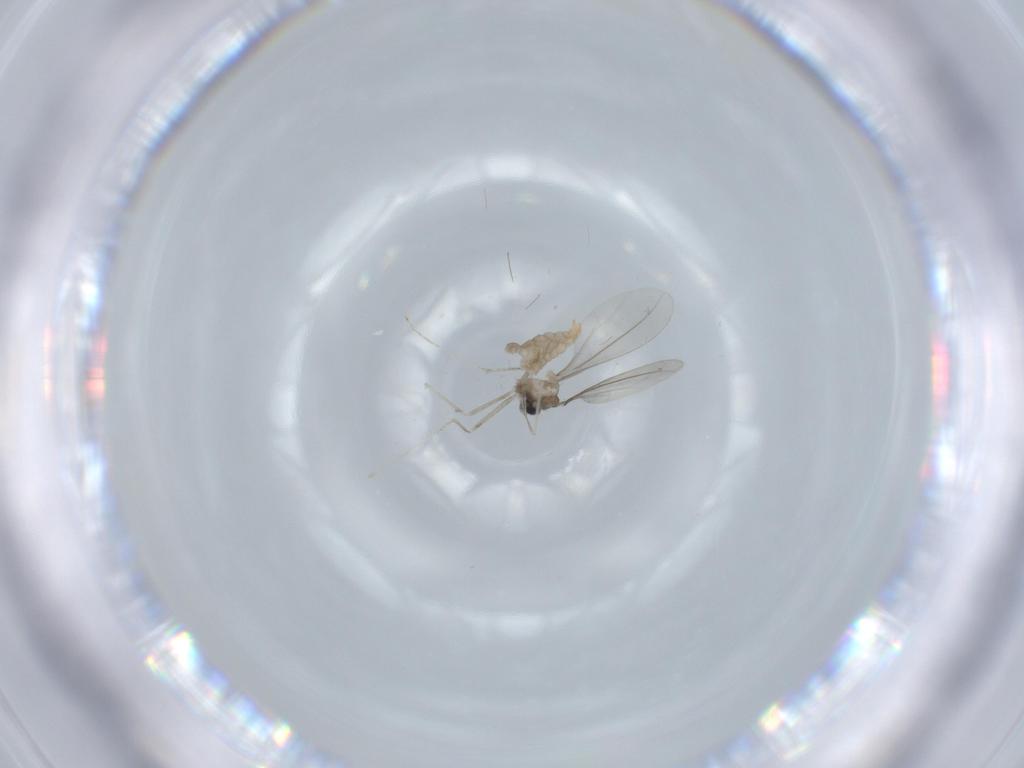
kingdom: Animalia
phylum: Arthropoda
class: Insecta
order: Diptera
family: Cecidomyiidae
